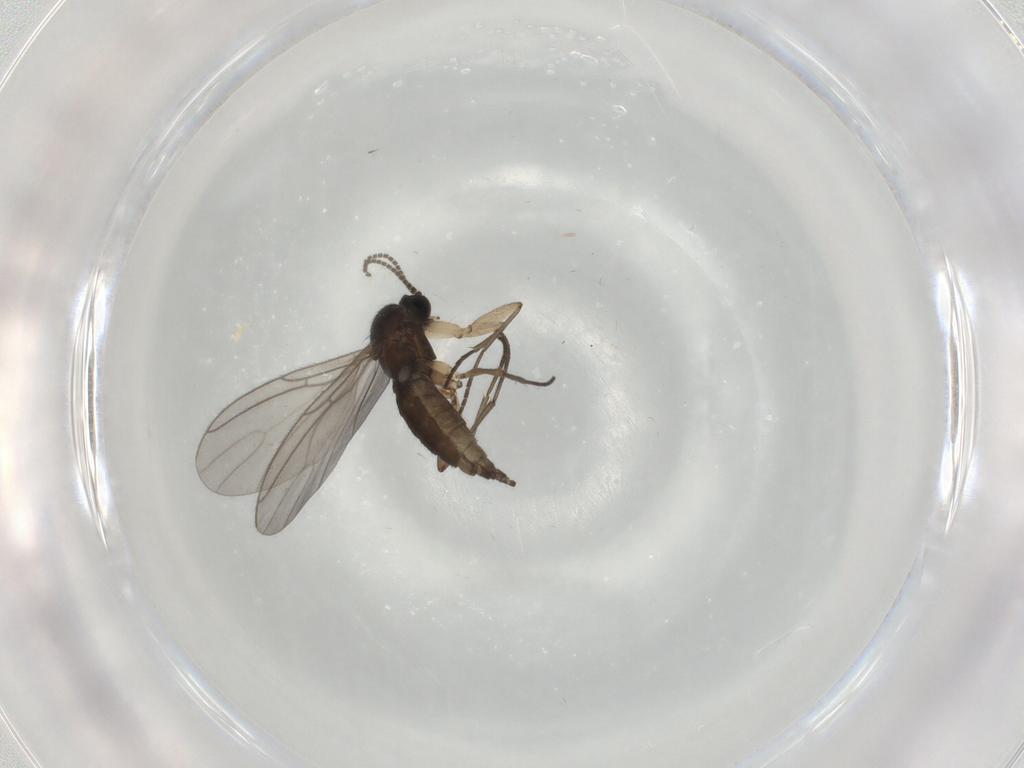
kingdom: Animalia
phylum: Arthropoda
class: Insecta
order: Diptera
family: Sciaridae
